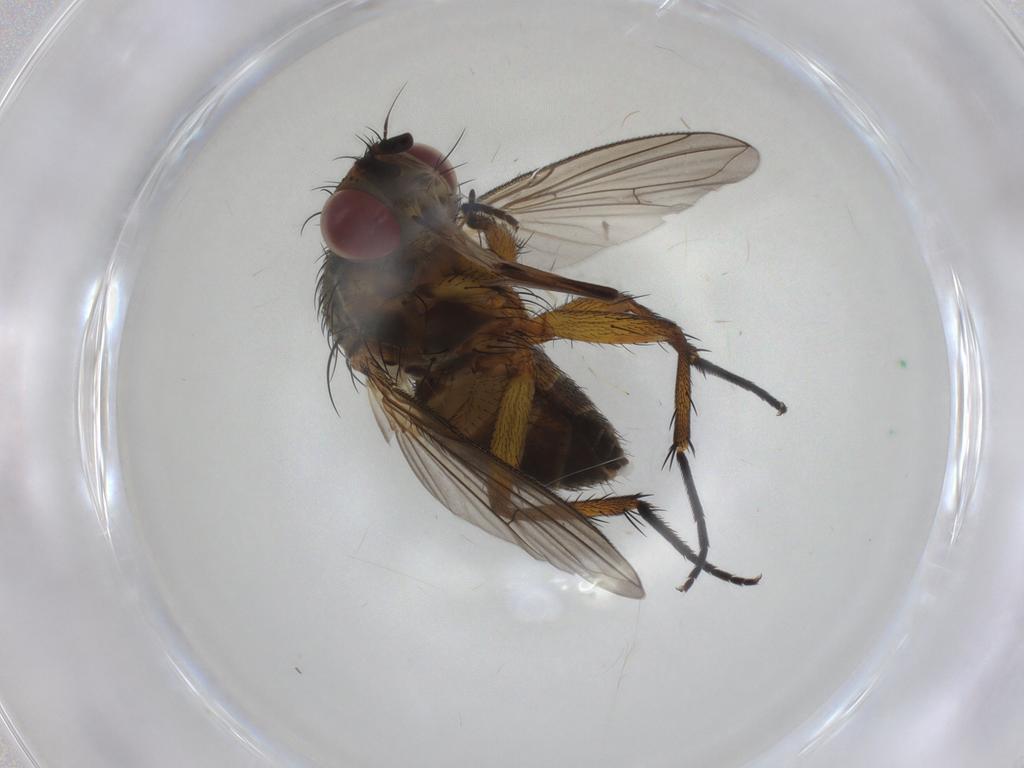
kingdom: Animalia
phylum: Arthropoda
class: Insecta
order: Diptera
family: Tachinidae
